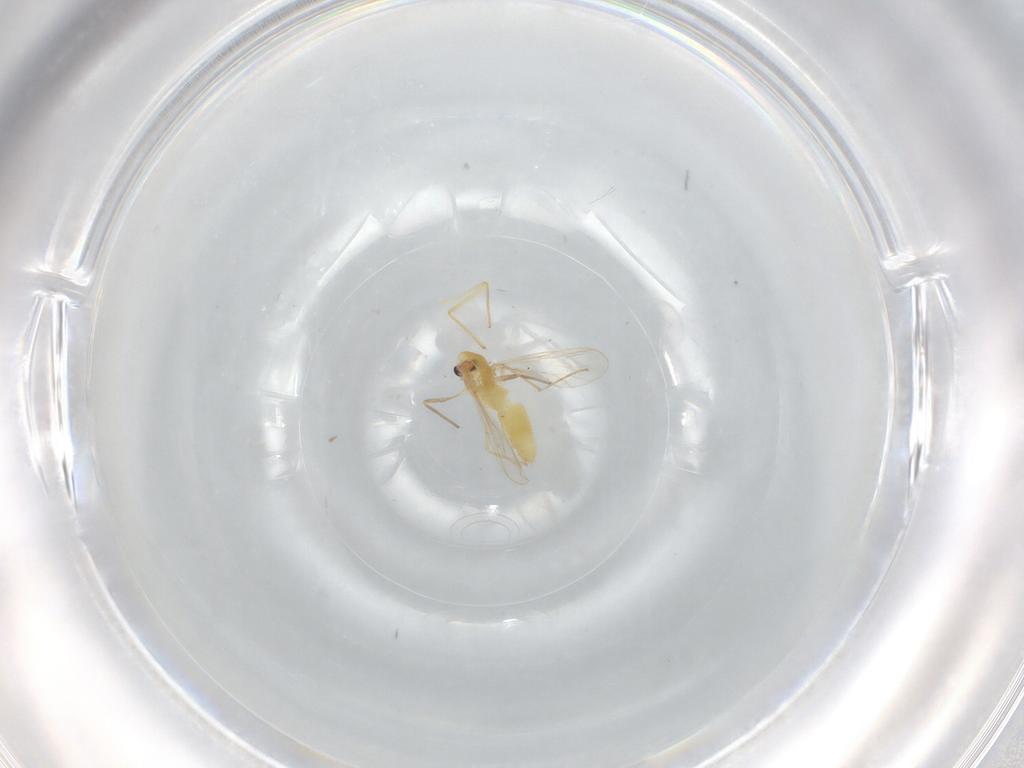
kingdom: Animalia
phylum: Arthropoda
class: Insecta
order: Diptera
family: Chironomidae
